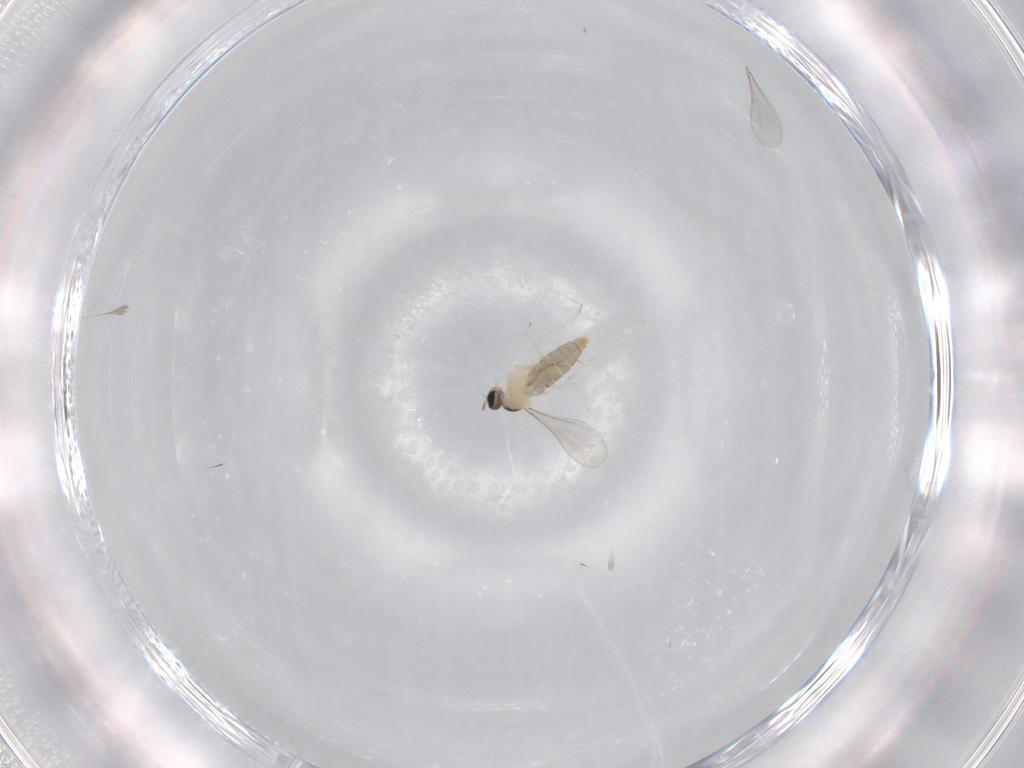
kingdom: Animalia
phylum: Arthropoda
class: Insecta
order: Diptera
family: Cecidomyiidae
